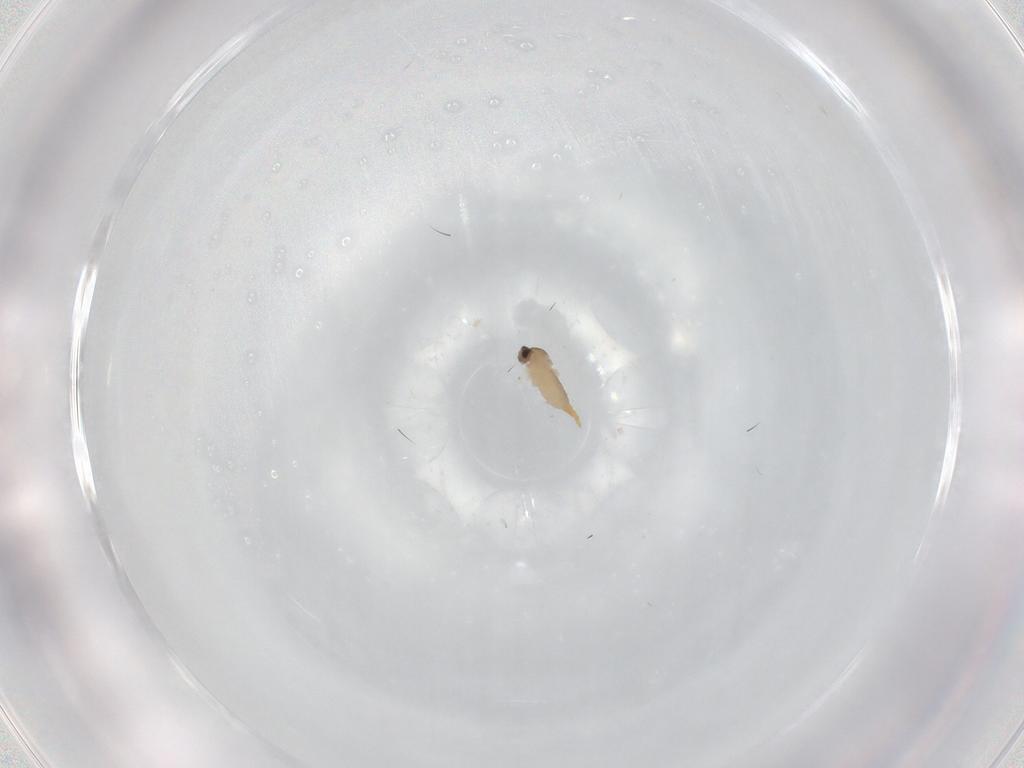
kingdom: Animalia
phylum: Arthropoda
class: Insecta
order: Diptera
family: Cecidomyiidae
